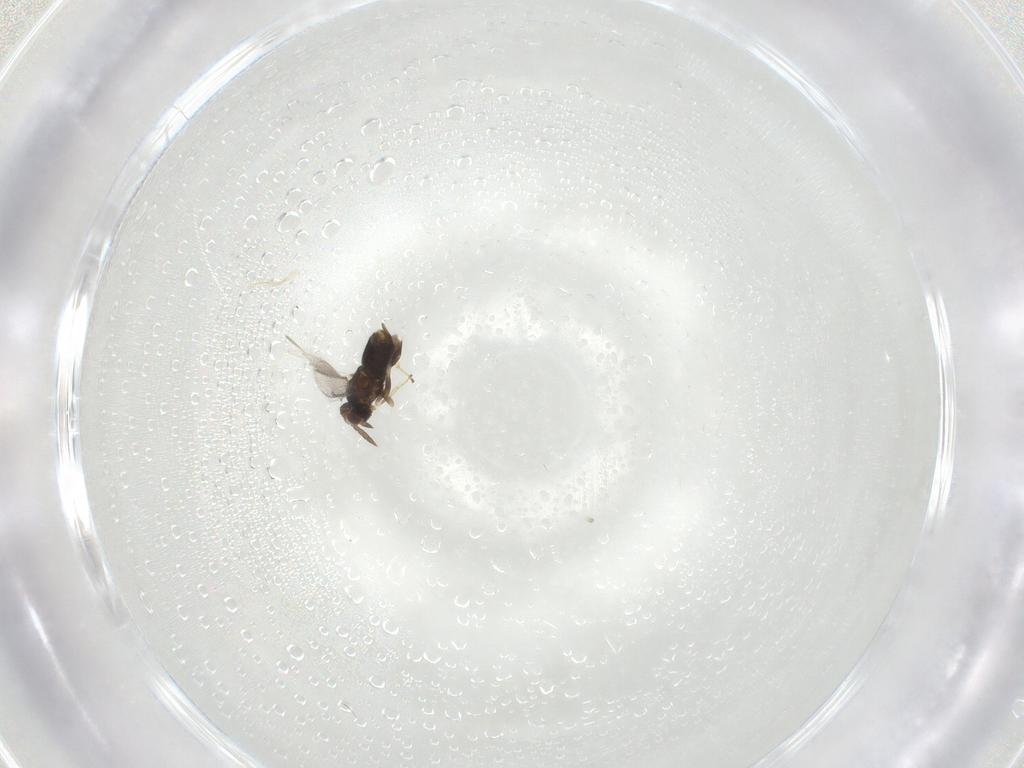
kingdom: Animalia
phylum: Arthropoda
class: Insecta
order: Hymenoptera
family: Aphelinidae
